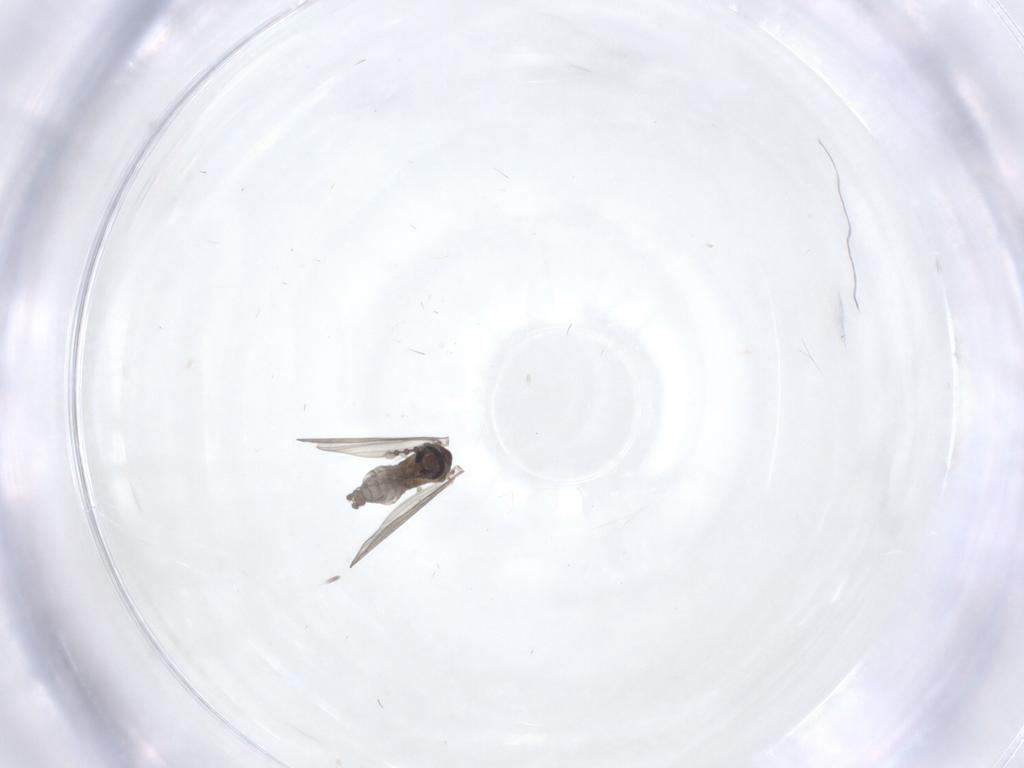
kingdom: Animalia
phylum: Arthropoda
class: Insecta
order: Diptera
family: Psychodidae
